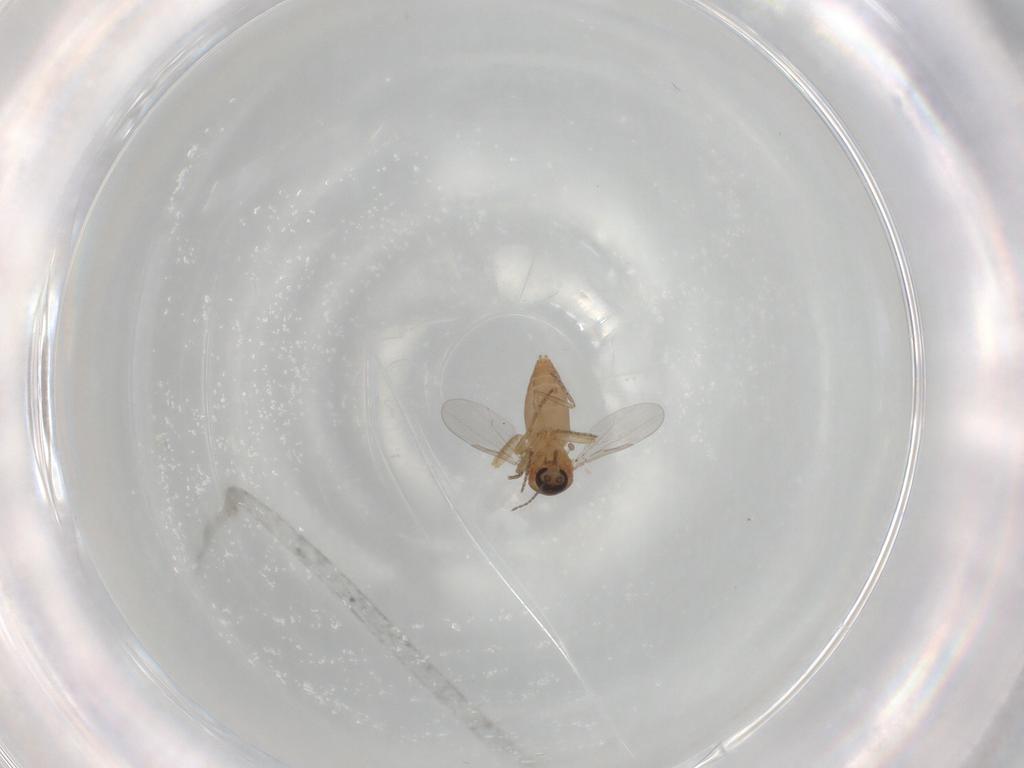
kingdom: Animalia
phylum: Arthropoda
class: Insecta
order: Diptera
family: Ceratopogonidae
